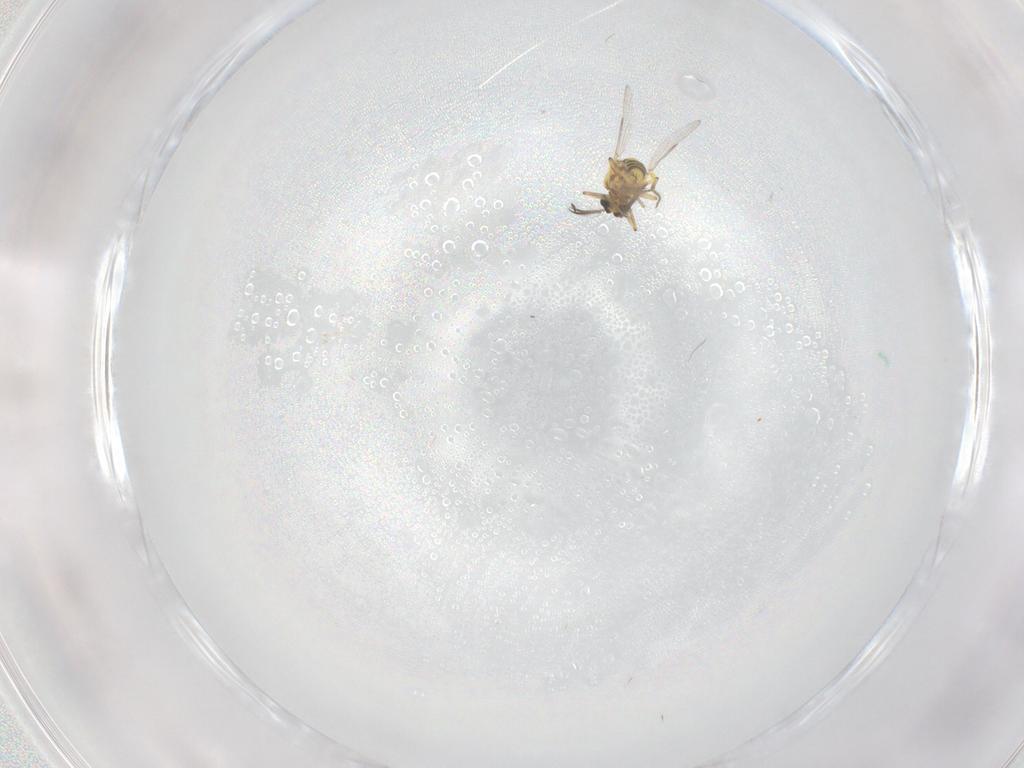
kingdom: Animalia
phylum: Arthropoda
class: Insecta
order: Diptera
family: Ceratopogonidae
